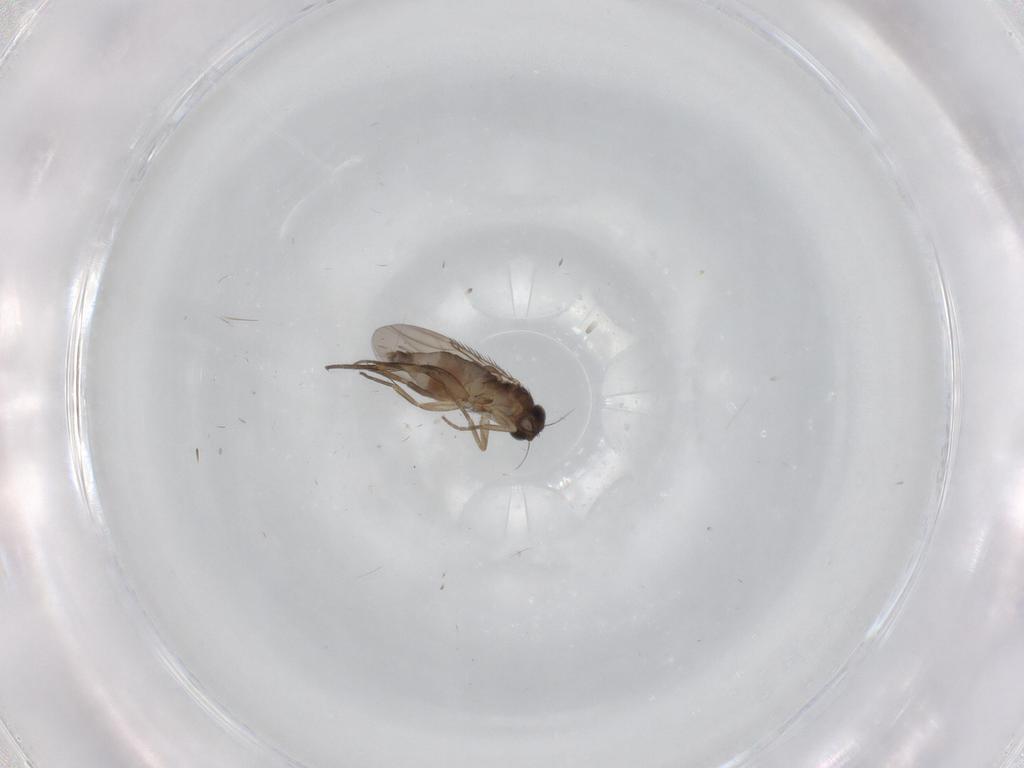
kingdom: Animalia
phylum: Arthropoda
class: Insecta
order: Diptera
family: Phoridae
